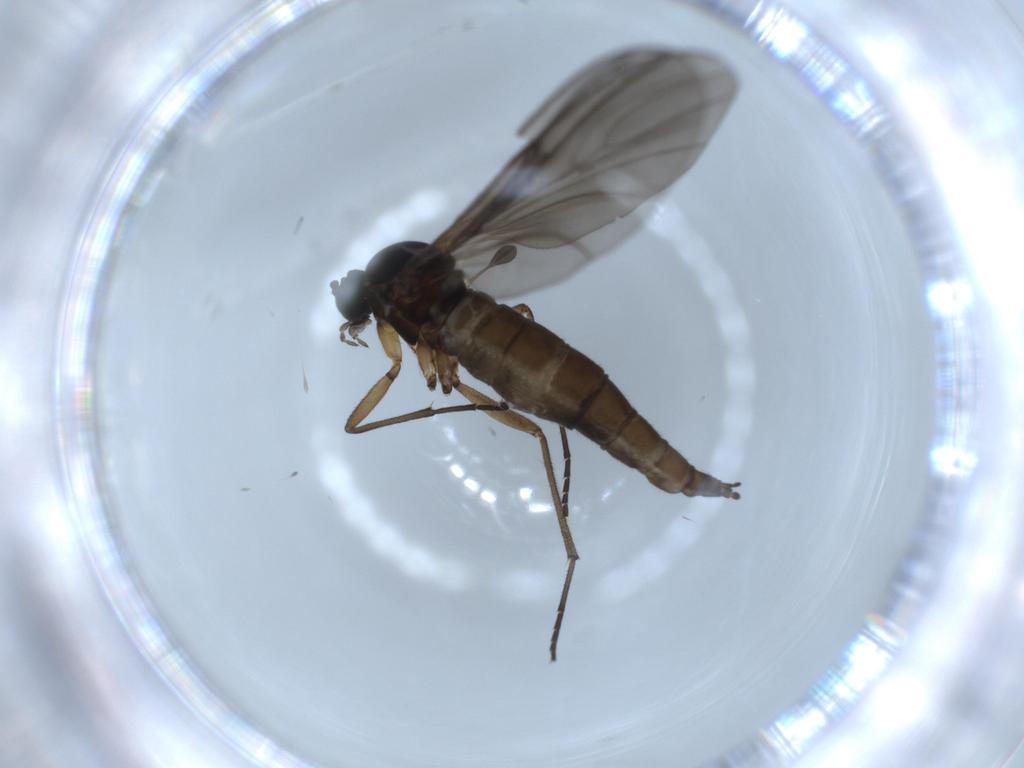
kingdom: Animalia
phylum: Arthropoda
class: Insecta
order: Diptera
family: Sciaridae
